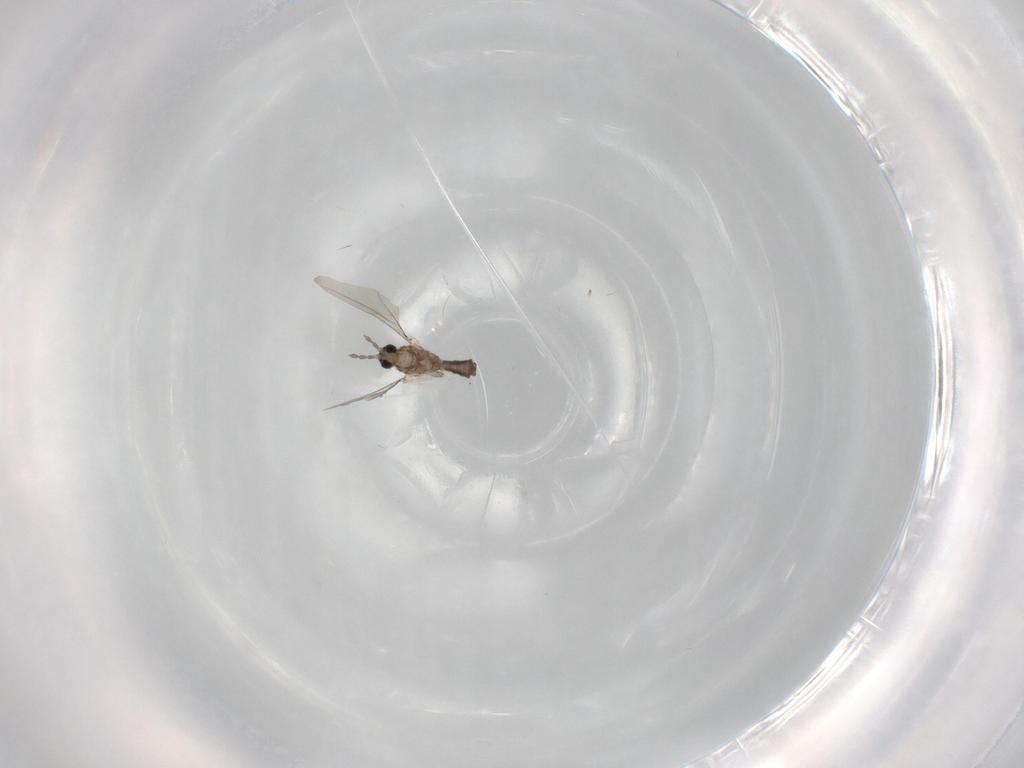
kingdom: Animalia
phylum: Arthropoda
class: Insecta
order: Diptera
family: Cecidomyiidae
